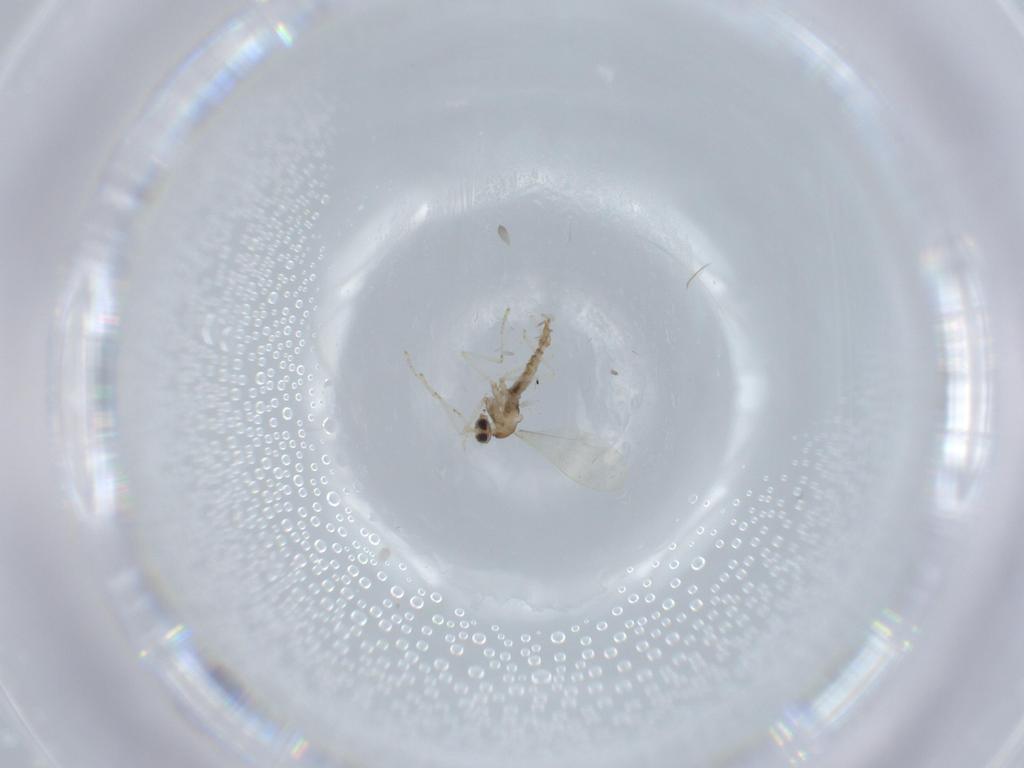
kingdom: Animalia
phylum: Arthropoda
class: Insecta
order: Diptera
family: Cecidomyiidae
